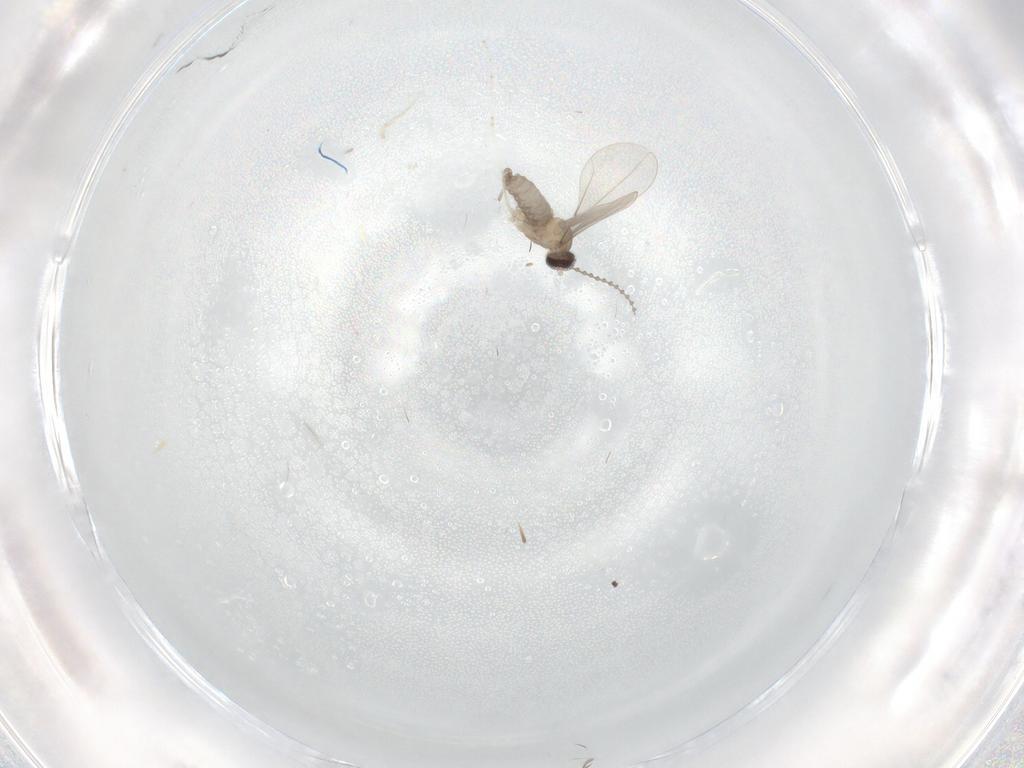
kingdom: Animalia
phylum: Arthropoda
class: Insecta
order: Diptera
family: Cecidomyiidae
